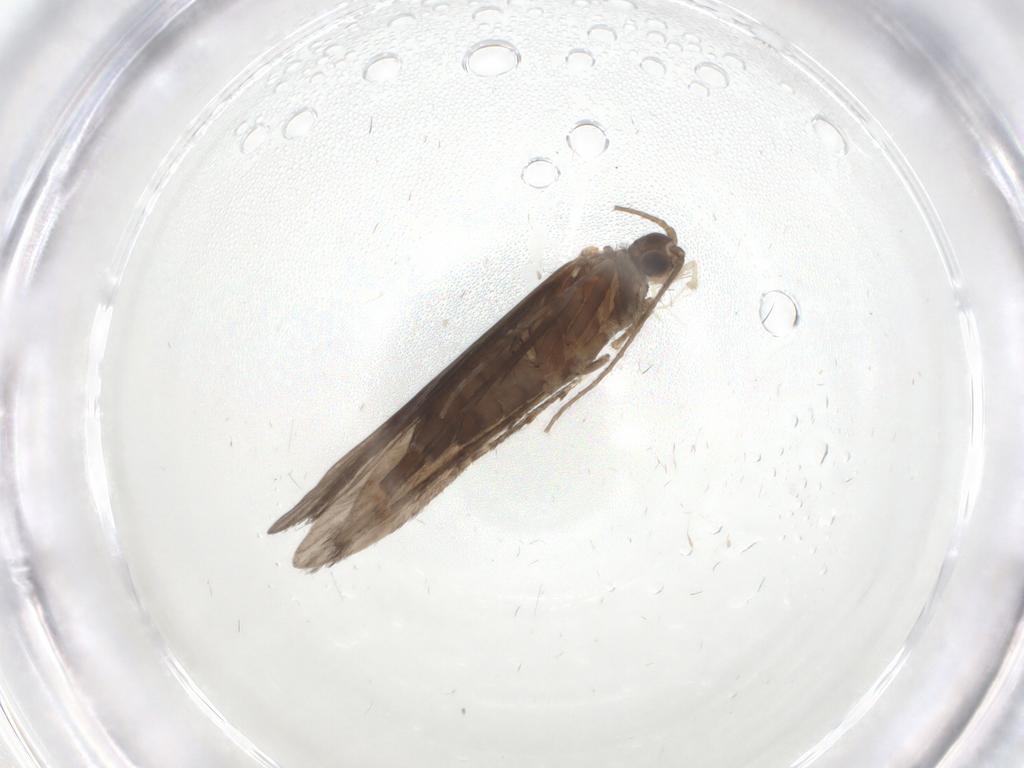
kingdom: Animalia
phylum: Arthropoda
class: Insecta
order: Trichoptera
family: Xiphocentronidae
